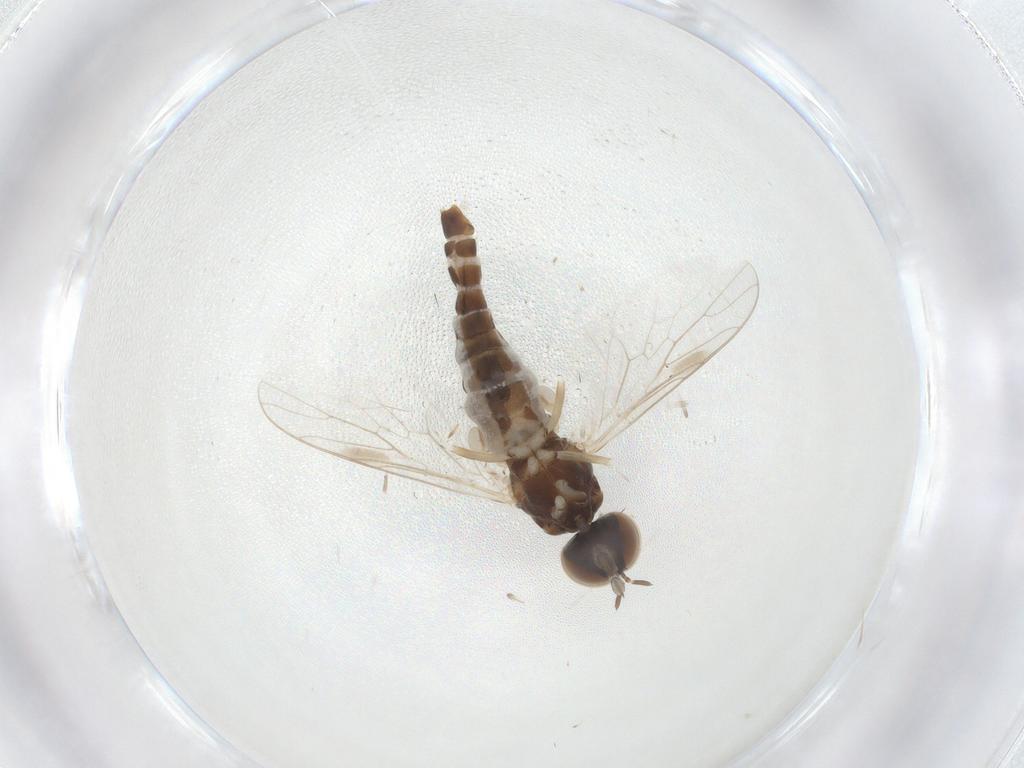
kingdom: Animalia
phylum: Arthropoda
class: Insecta
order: Diptera
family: Scenopinidae
